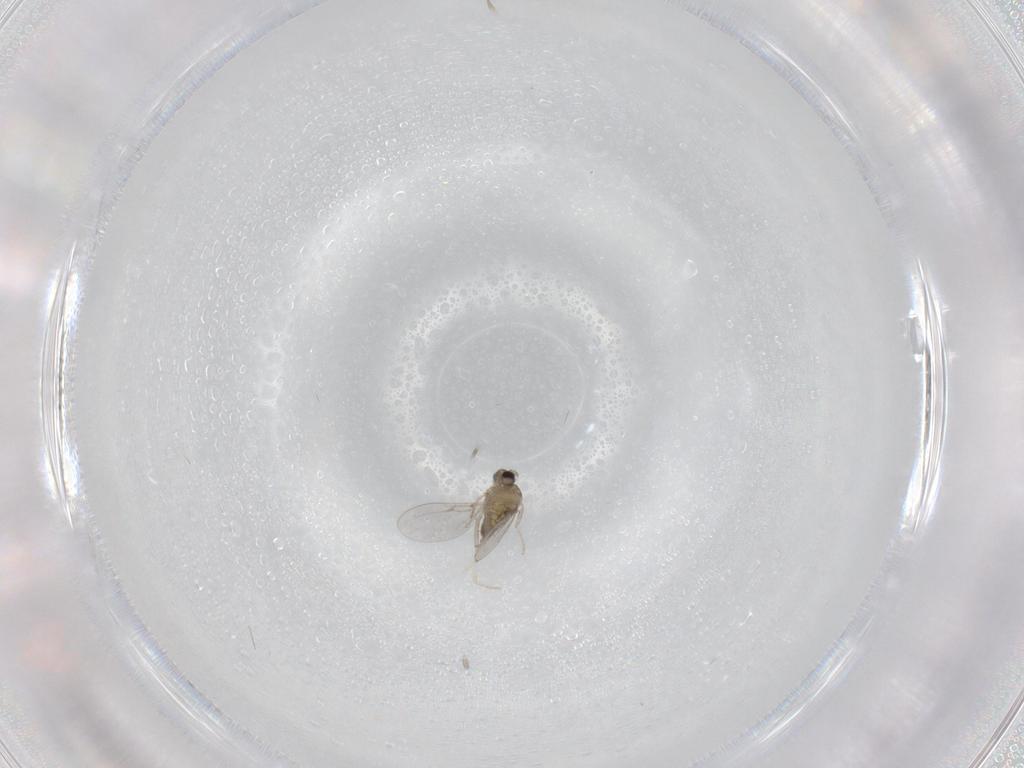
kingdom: Animalia
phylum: Arthropoda
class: Insecta
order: Diptera
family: Cecidomyiidae
